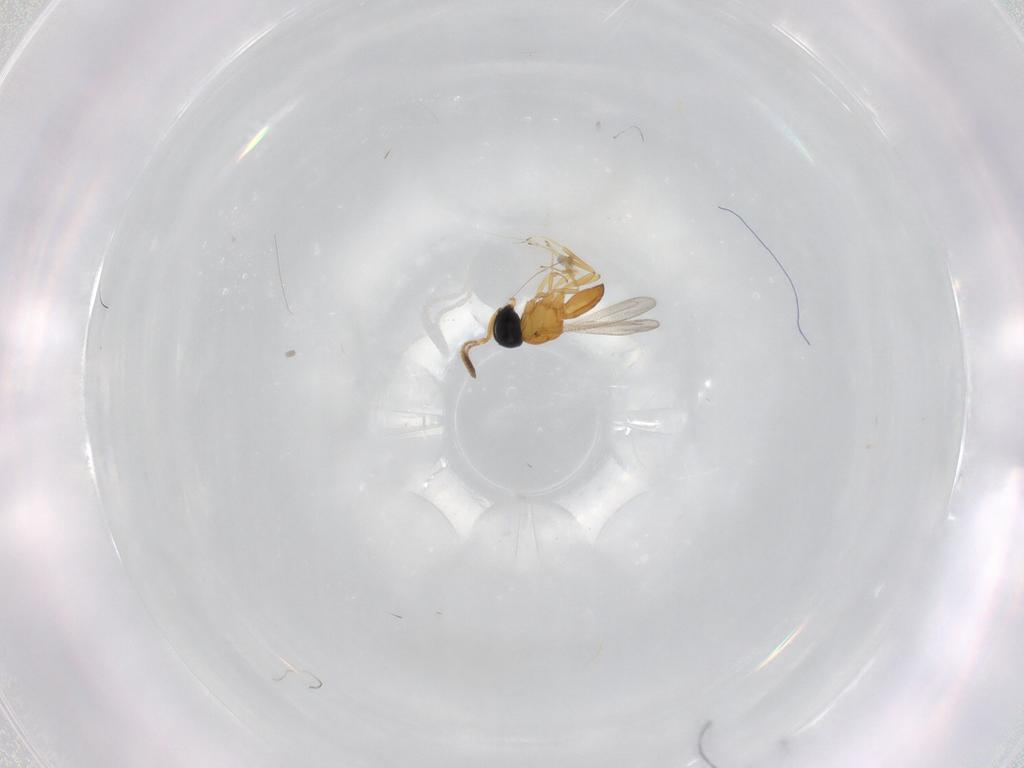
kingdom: Animalia
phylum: Arthropoda
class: Insecta
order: Hymenoptera
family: Scelionidae
